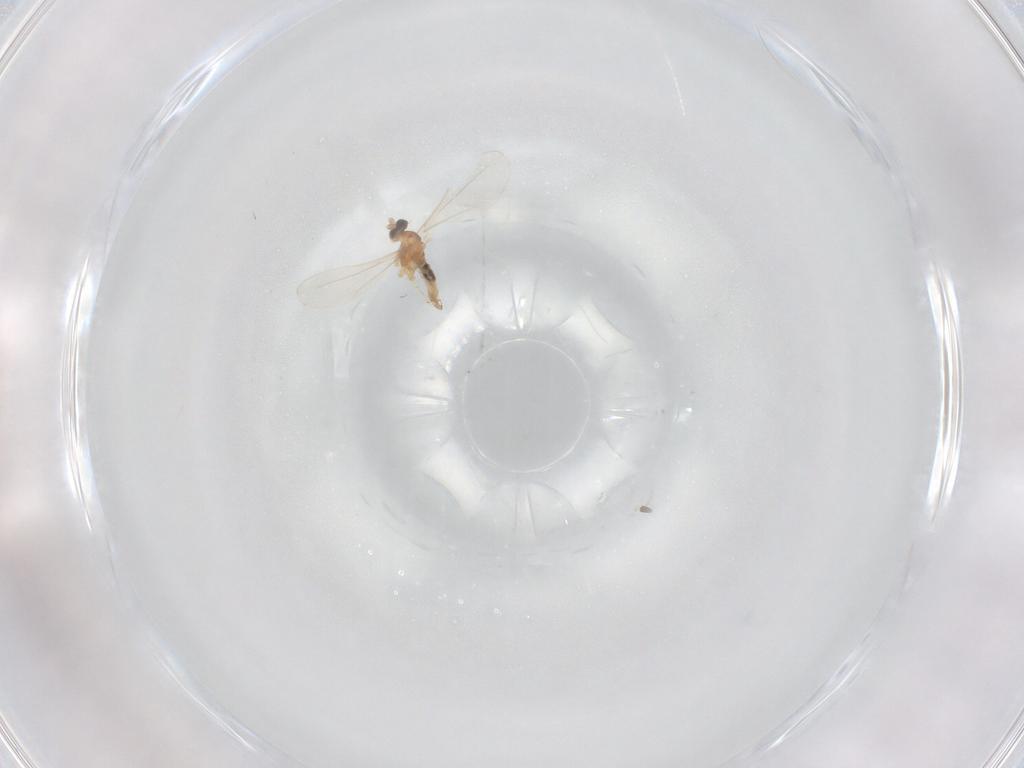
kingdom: Animalia
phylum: Arthropoda
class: Insecta
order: Diptera
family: Ceratopogonidae
